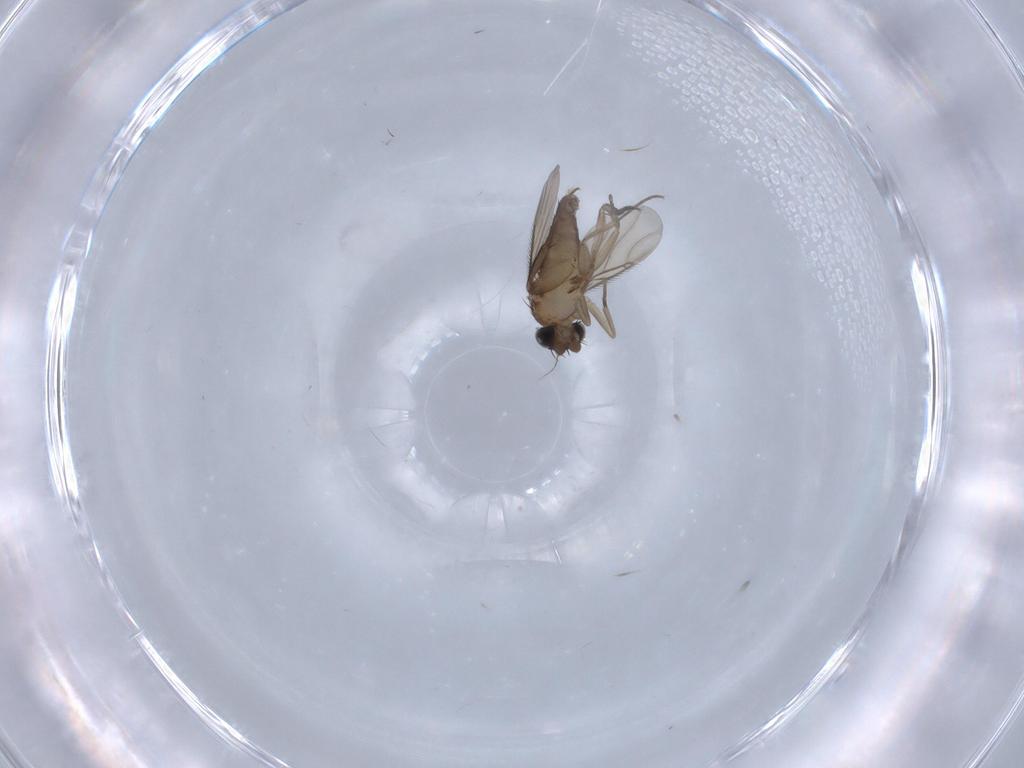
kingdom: Animalia
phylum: Arthropoda
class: Insecta
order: Diptera
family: Phoridae
